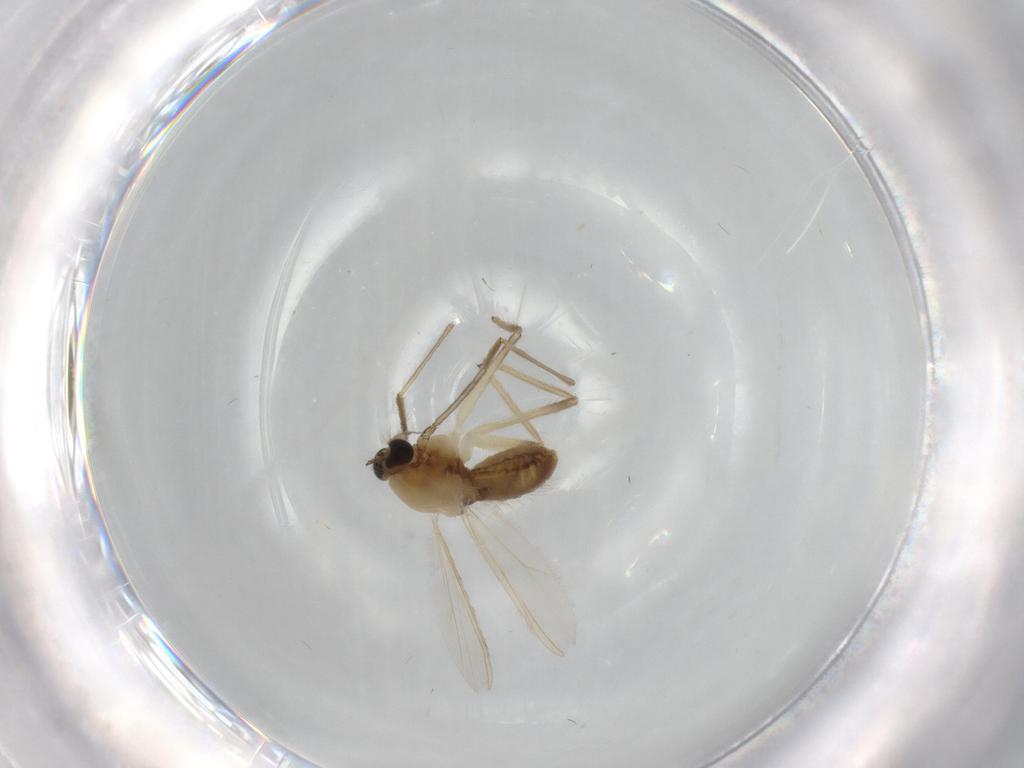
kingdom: Animalia
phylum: Arthropoda
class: Insecta
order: Diptera
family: Chironomidae
